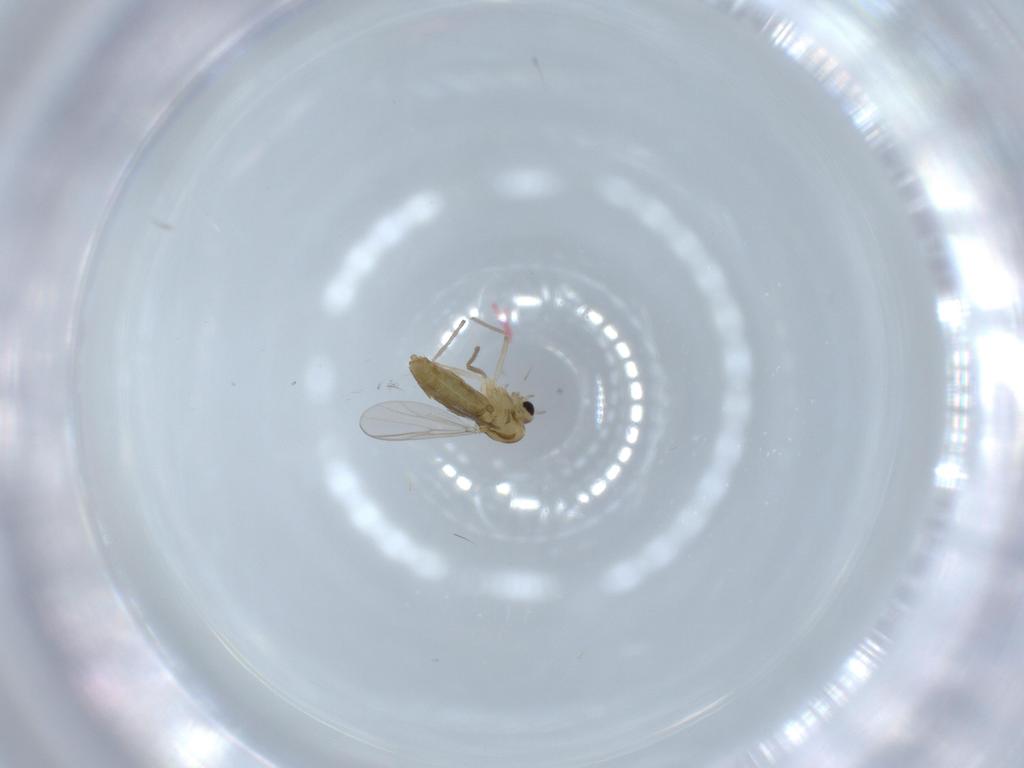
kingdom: Animalia
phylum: Arthropoda
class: Insecta
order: Diptera
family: Chironomidae
